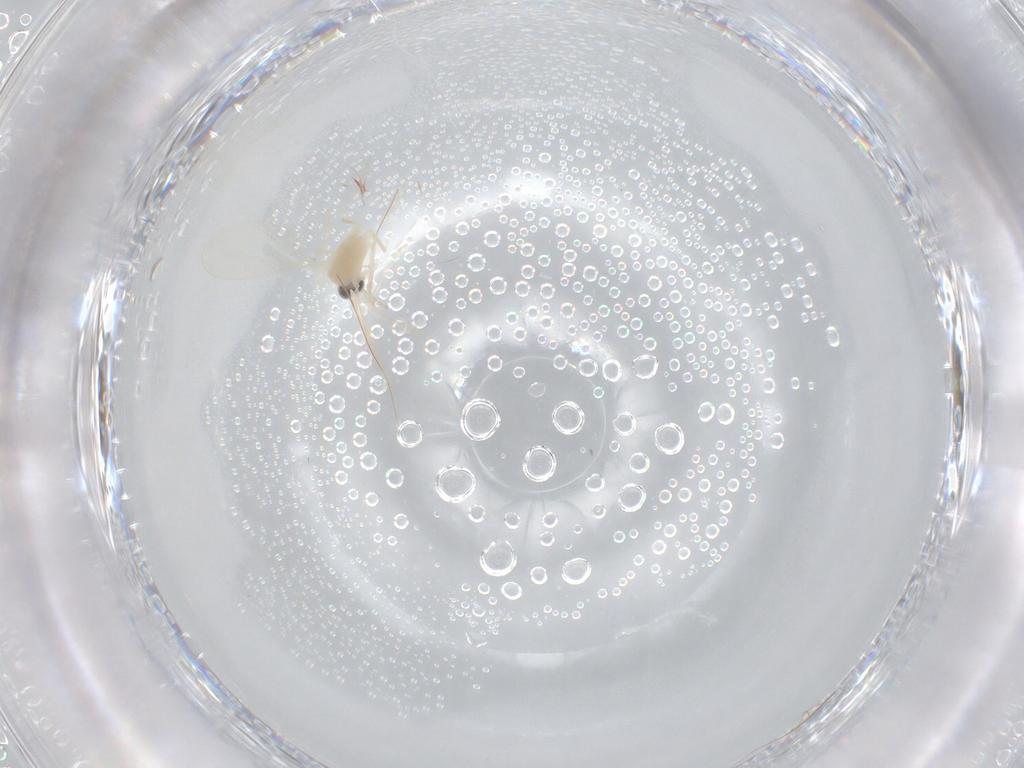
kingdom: Animalia
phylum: Arthropoda
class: Insecta
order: Diptera
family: Cecidomyiidae
